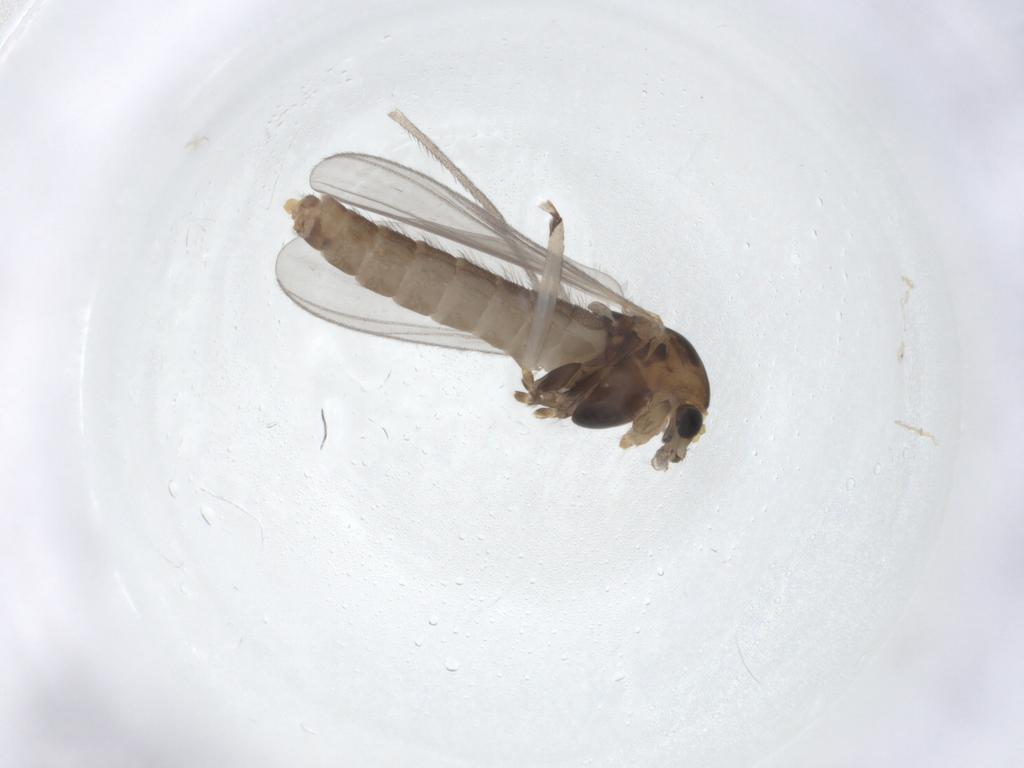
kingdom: Animalia
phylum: Arthropoda
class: Insecta
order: Diptera
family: Chironomidae
